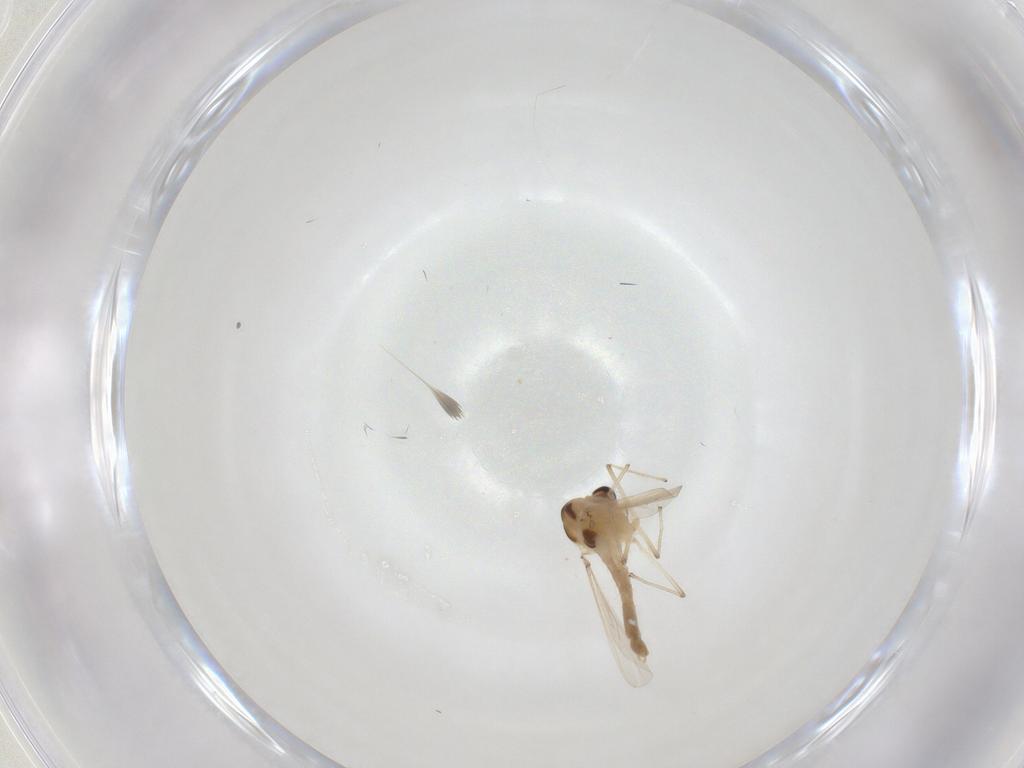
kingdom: Animalia
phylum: Arthropoda
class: Insecta
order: Diptera
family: Chironomidae
